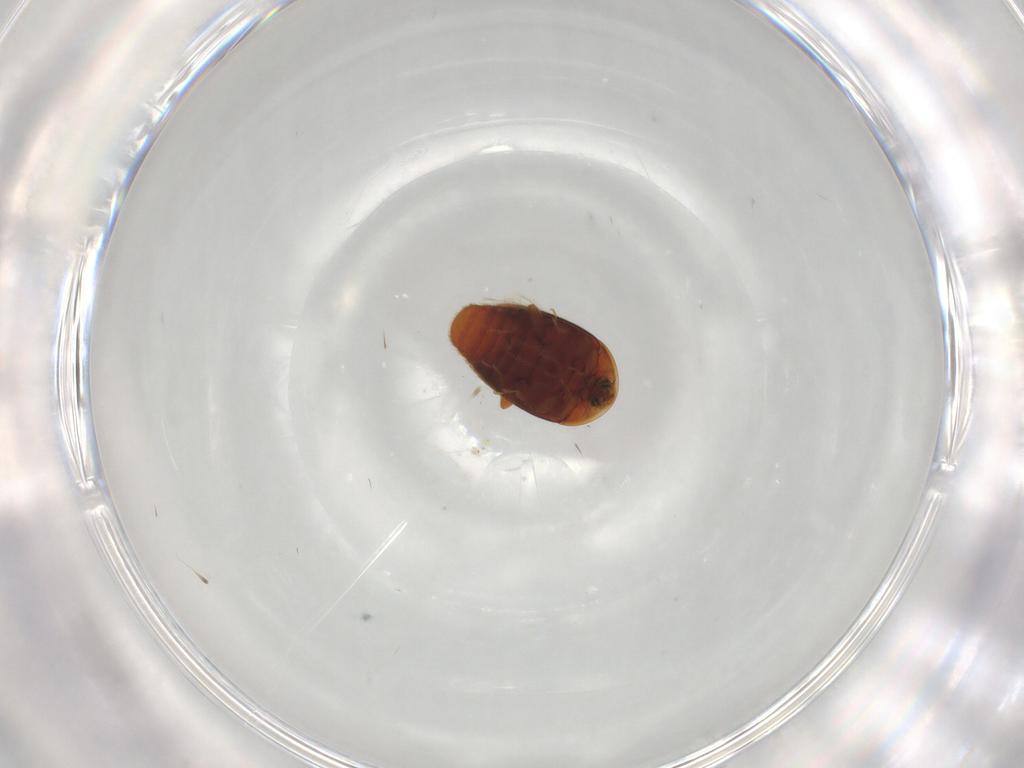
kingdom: Animalia
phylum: Arthropoda
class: Insecta
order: Coleoptera
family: Corylophidae
